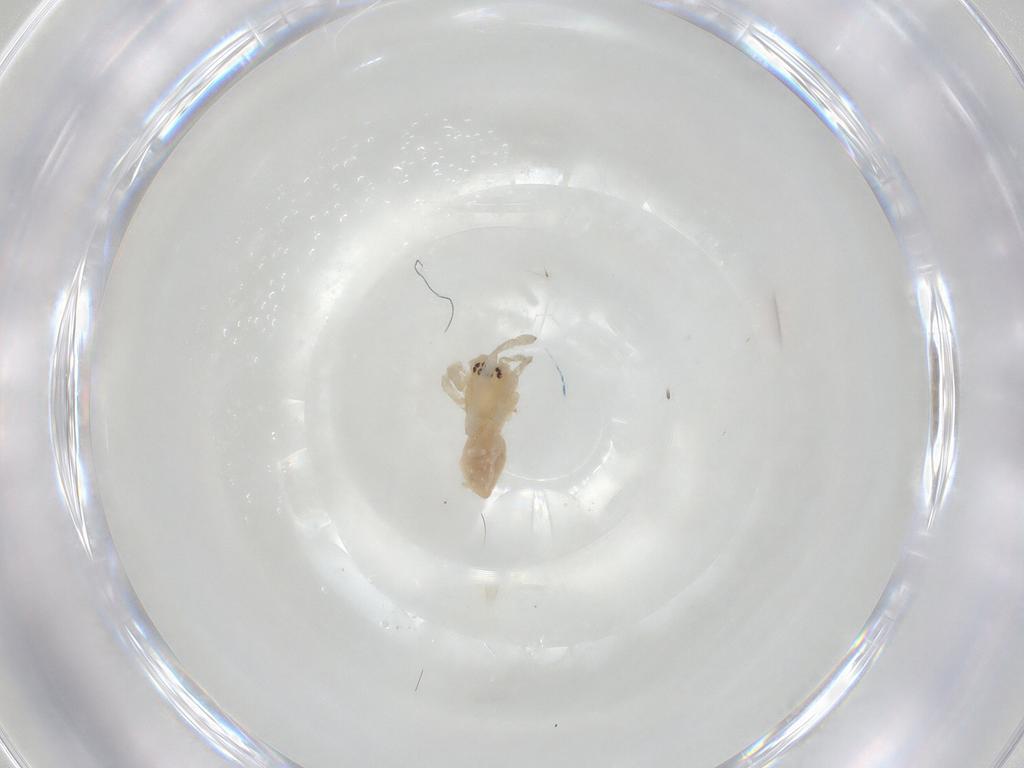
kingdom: Animalia
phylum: Arthropoda
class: Arachnida
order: Araneae
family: Cheiracanthiidae
